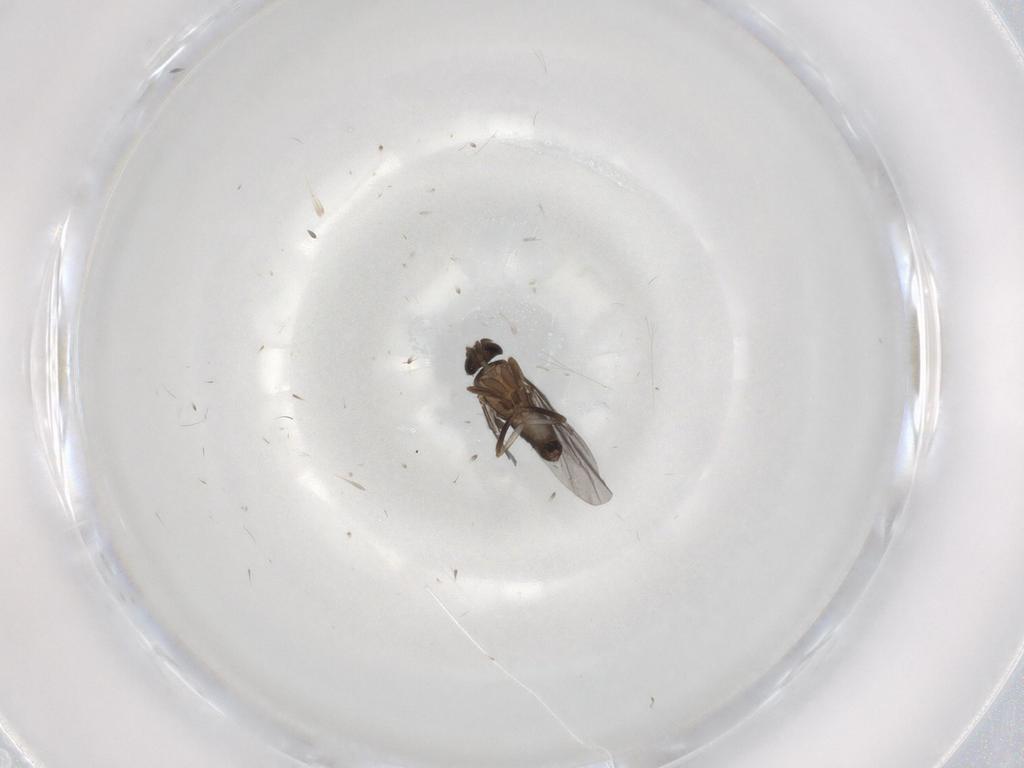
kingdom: Animalia
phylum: Arthropoda
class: Insecta
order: Diptera
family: Phoridae
